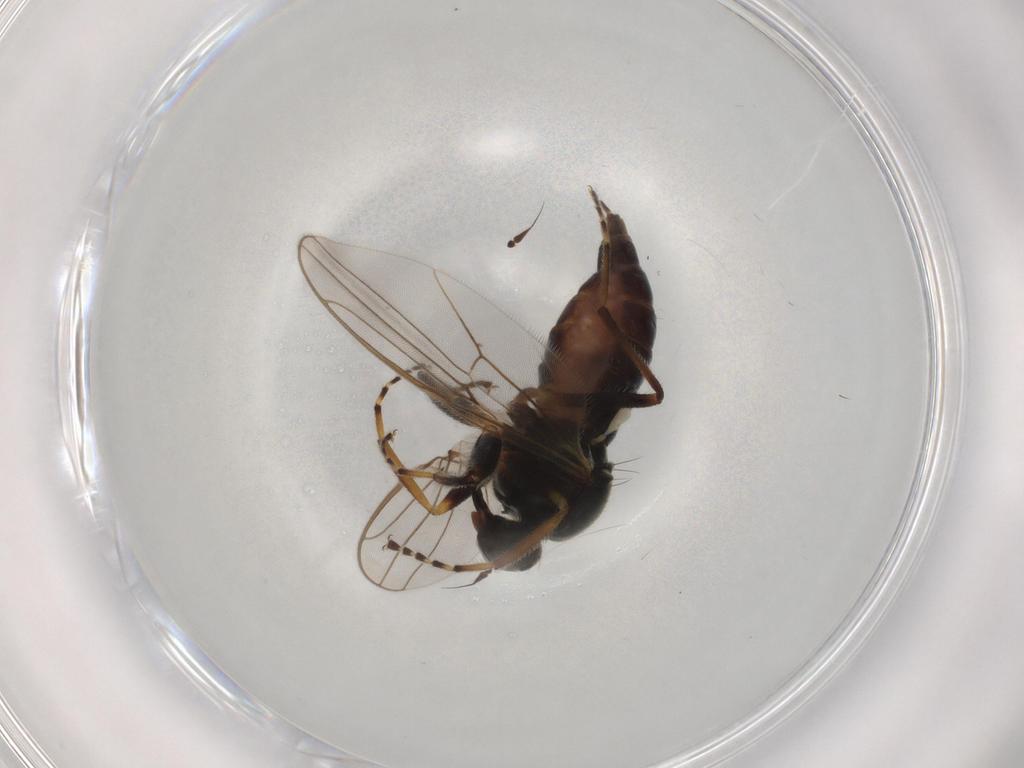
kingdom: Animalia
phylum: Arthropoda
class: Insecta
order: Diptera
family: Hybotidae
